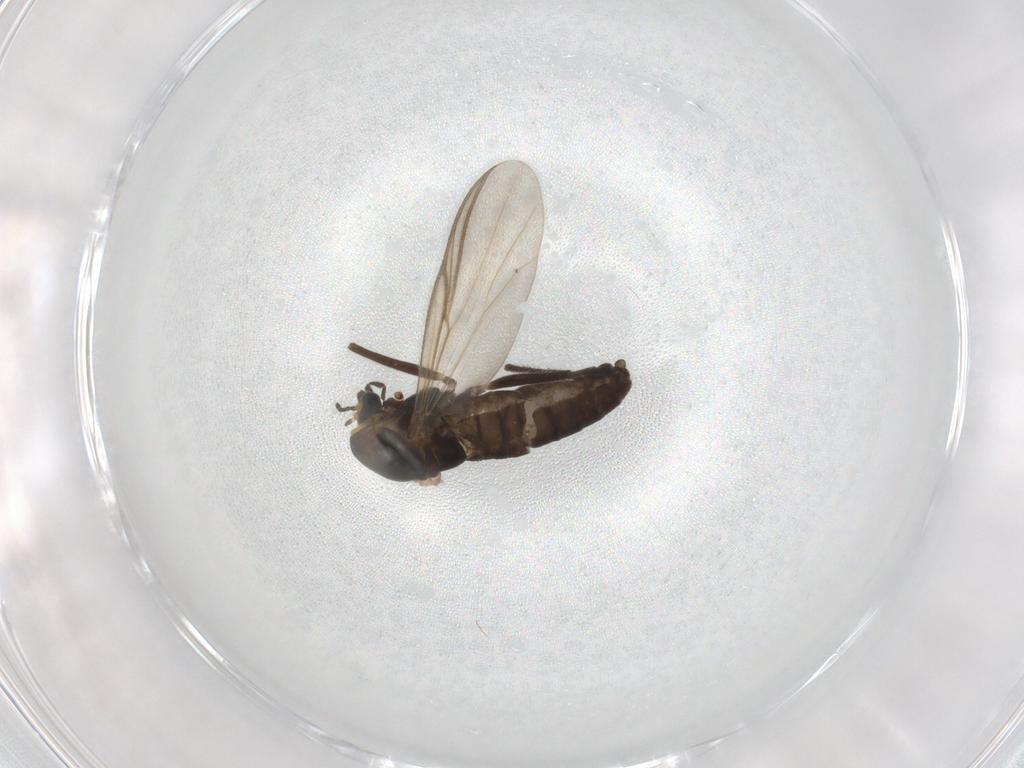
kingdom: Animalia
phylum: Arthropoda
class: Insecta
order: Diptera
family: Chironomidae
